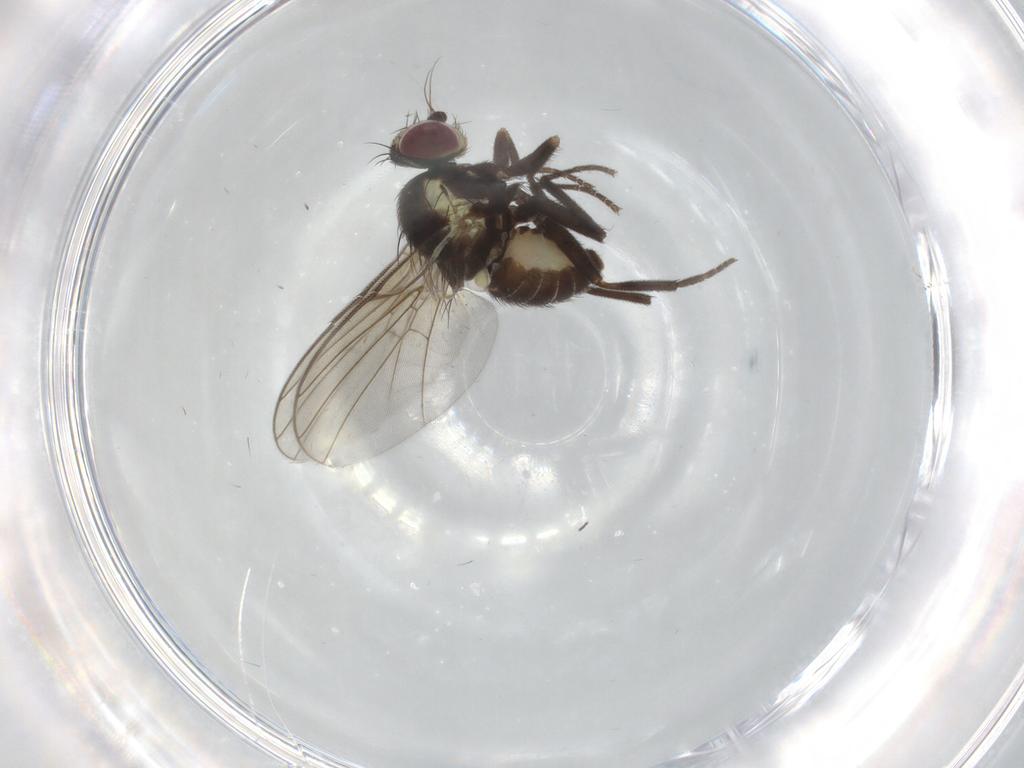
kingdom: Animalia
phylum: Arthropoda
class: Insecta
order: Diptera
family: Agromyzidae
